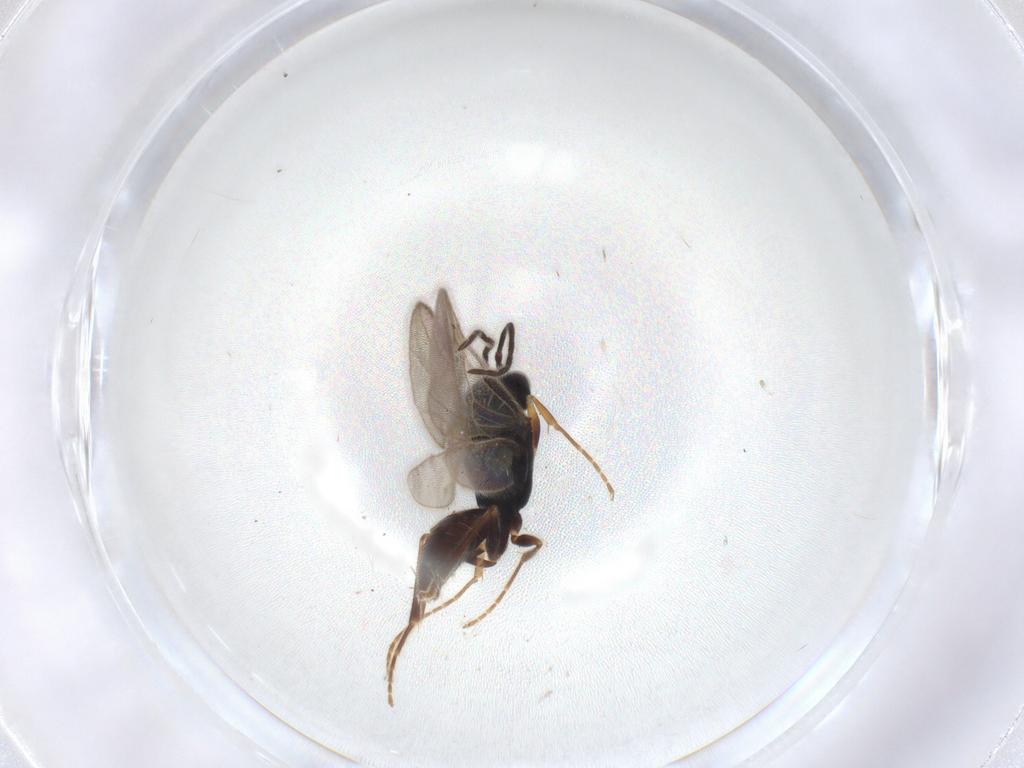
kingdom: Animalia
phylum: Arthropoda
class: Insecta
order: Hymenoptera
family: Dryinidae
